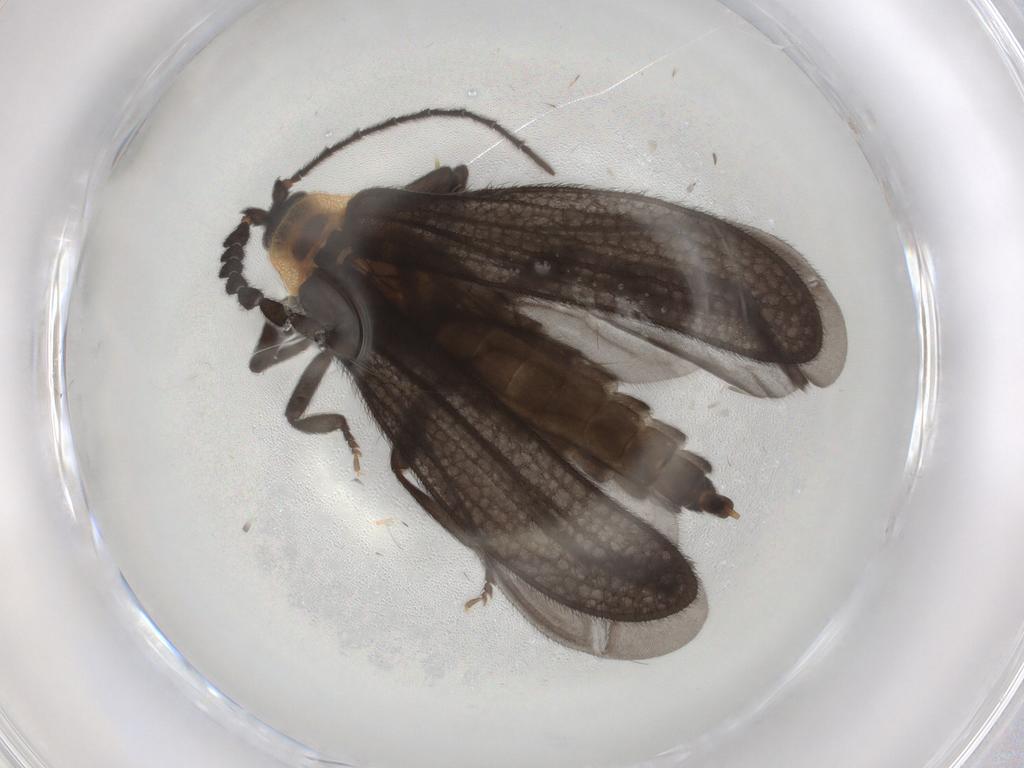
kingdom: Animalia
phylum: Arthropoda
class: Insecta
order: Coleoptera
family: Lycidae
